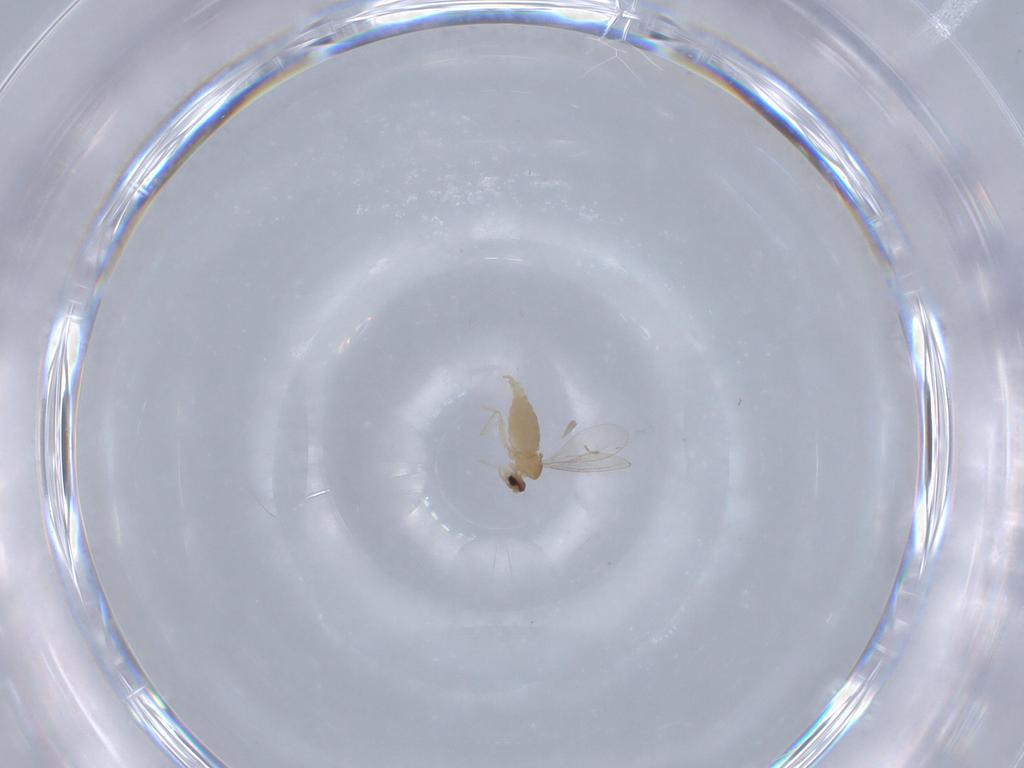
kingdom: Animalia
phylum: Arthropoda
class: Insecta
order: Diptera
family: Cecidomyiidae
